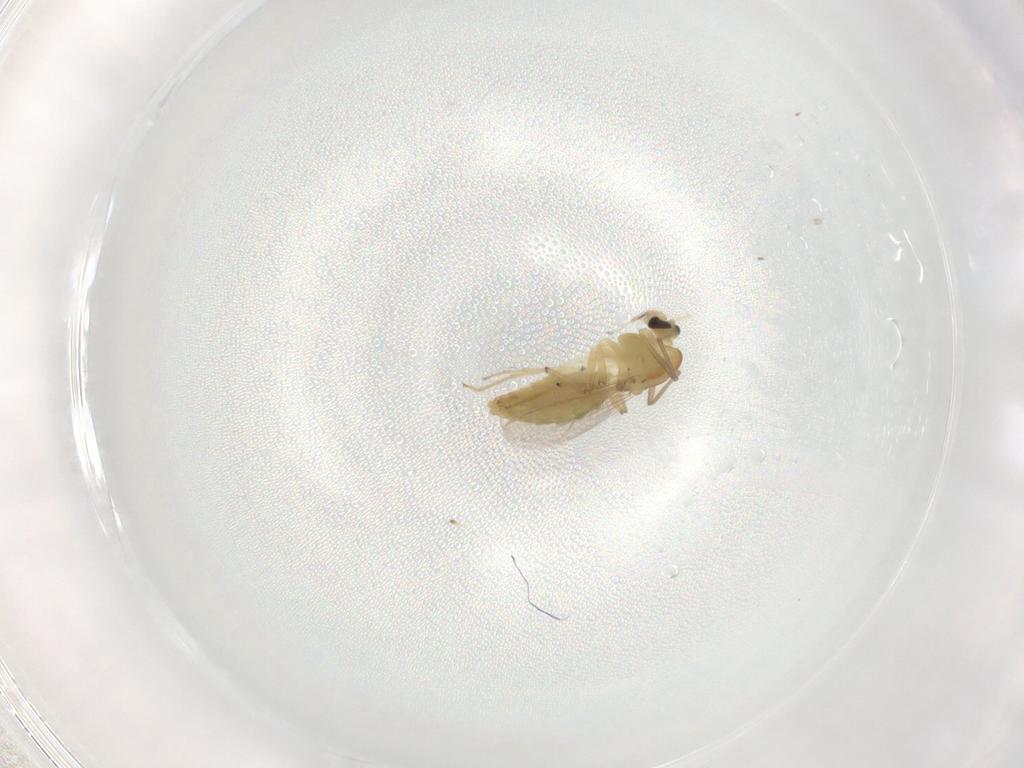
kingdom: Animalia
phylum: Arthropoda
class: Insecta
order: Diptera
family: Chironomidae
